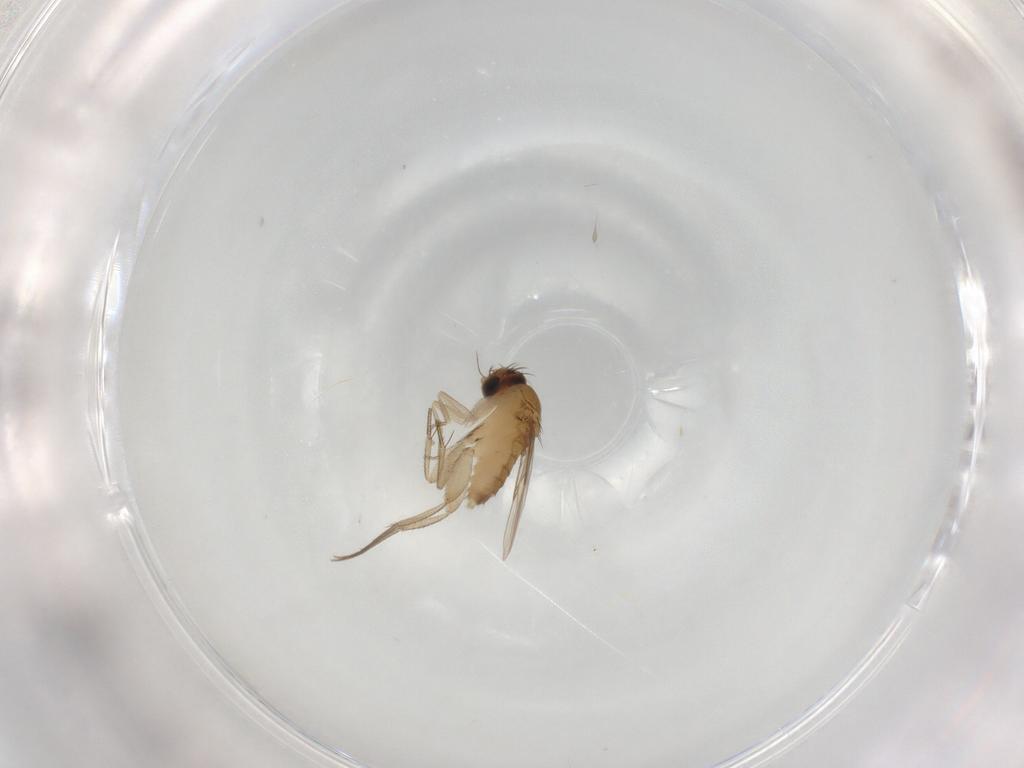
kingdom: Animalia
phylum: Arthropoda
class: Insecta
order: Diptera
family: Phoridae
